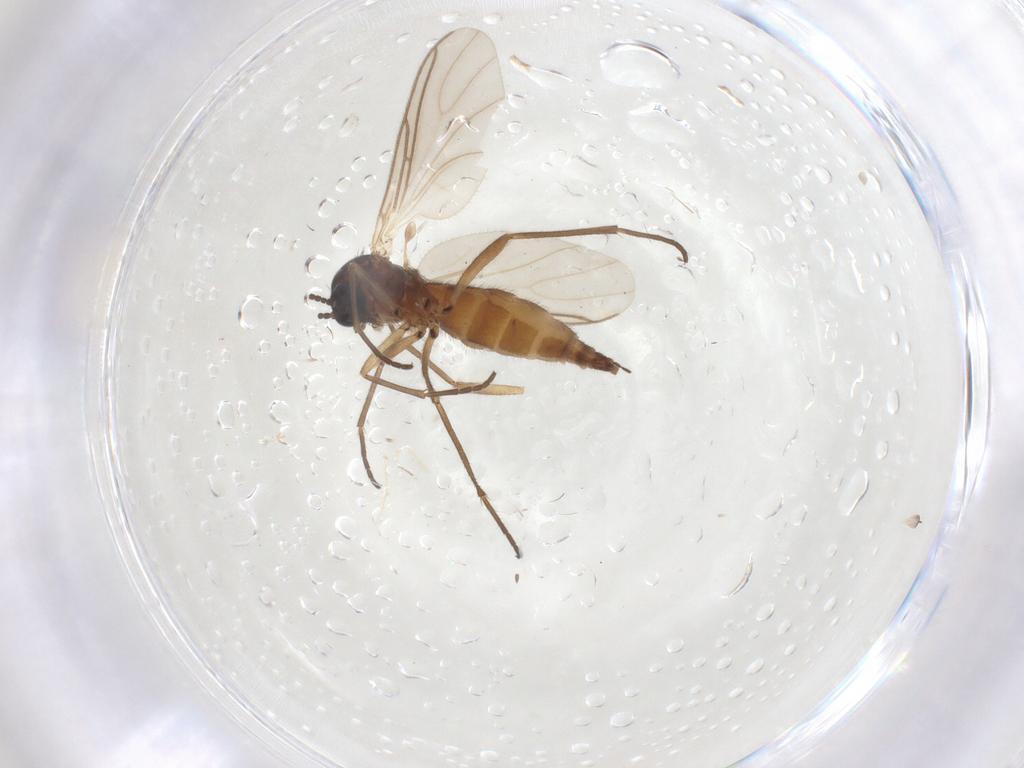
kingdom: Animalia
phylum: Arthropoda
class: Insecta
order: Diptera
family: Sciaridae
